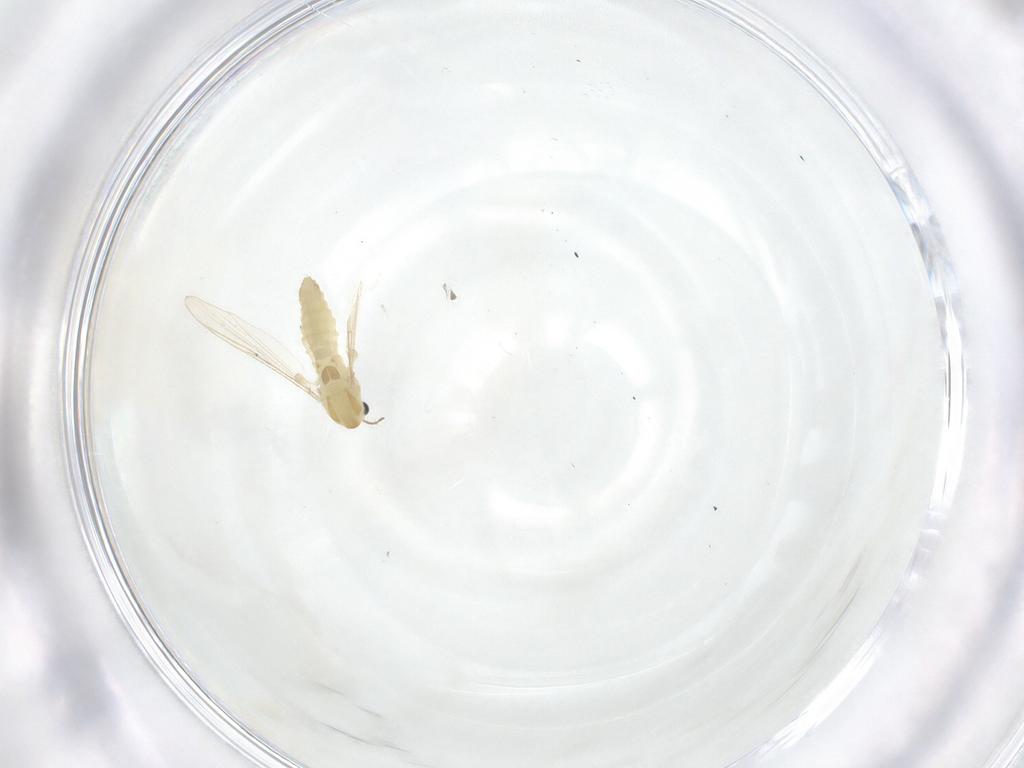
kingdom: Animalia
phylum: Arthropoda
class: Insecta
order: Diptera
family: Chironomidae
